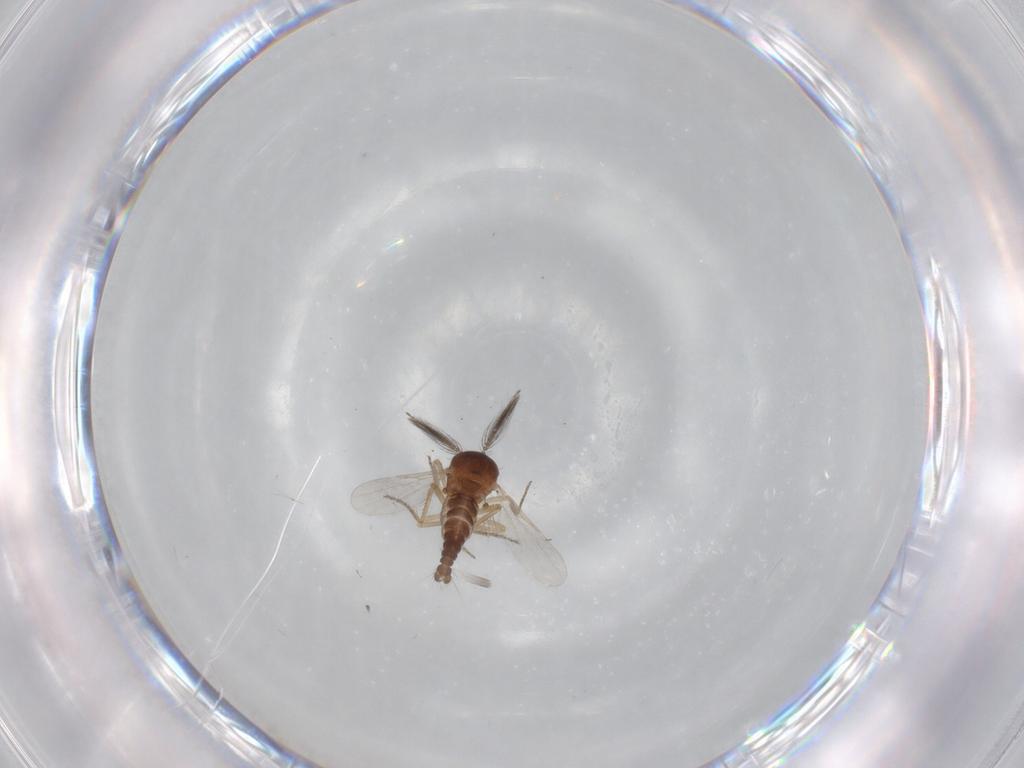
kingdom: Animalia
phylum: Arthropoda
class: Insecta
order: Diptera
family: Ceratopogonidae
